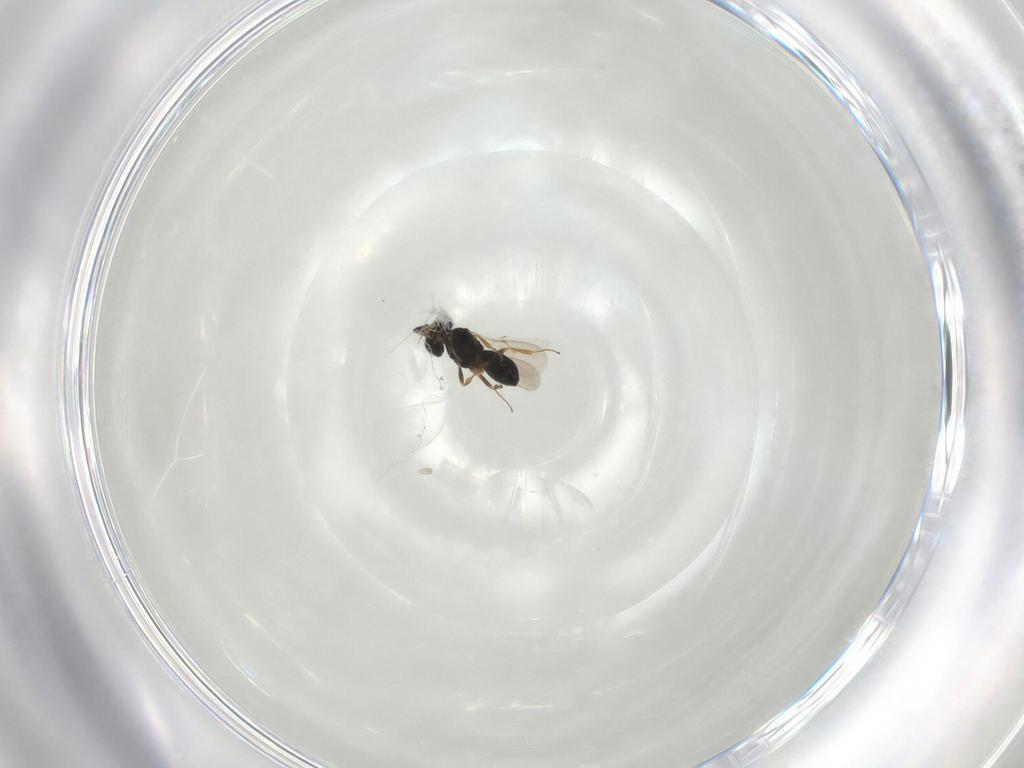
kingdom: Animalia
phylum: Arthropoda
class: Insecta
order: Hymenoptera
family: Scelionidae
